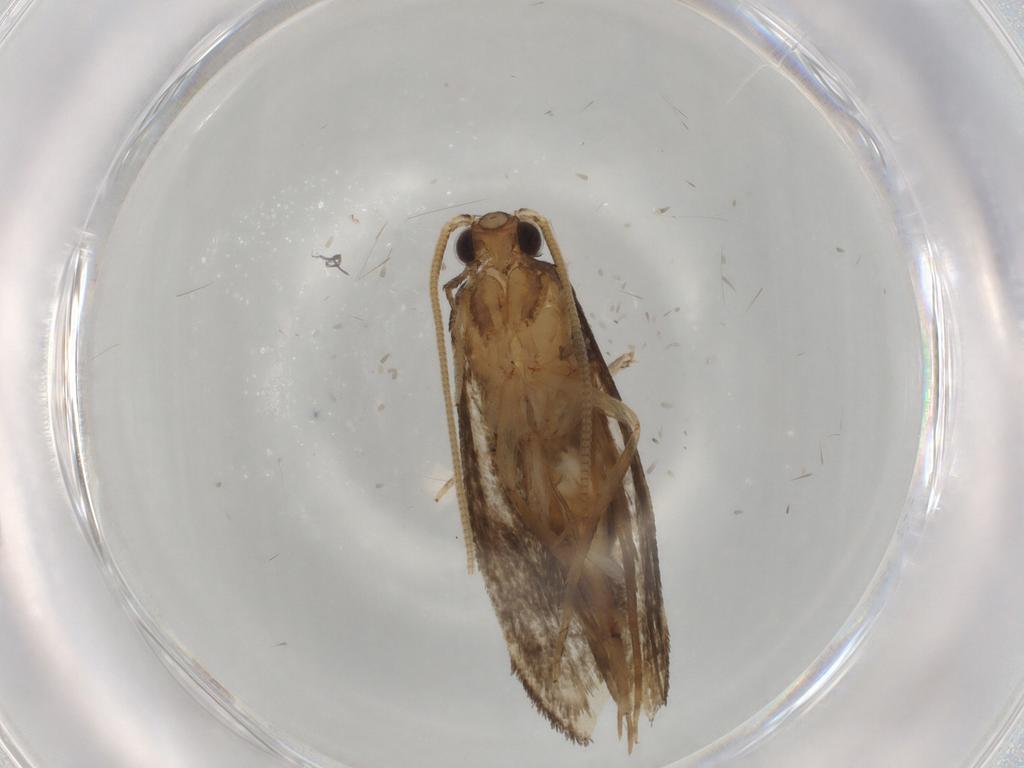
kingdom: Animalia
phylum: Arthropoda
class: Insecta
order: Lepidoptera
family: Tineidae
